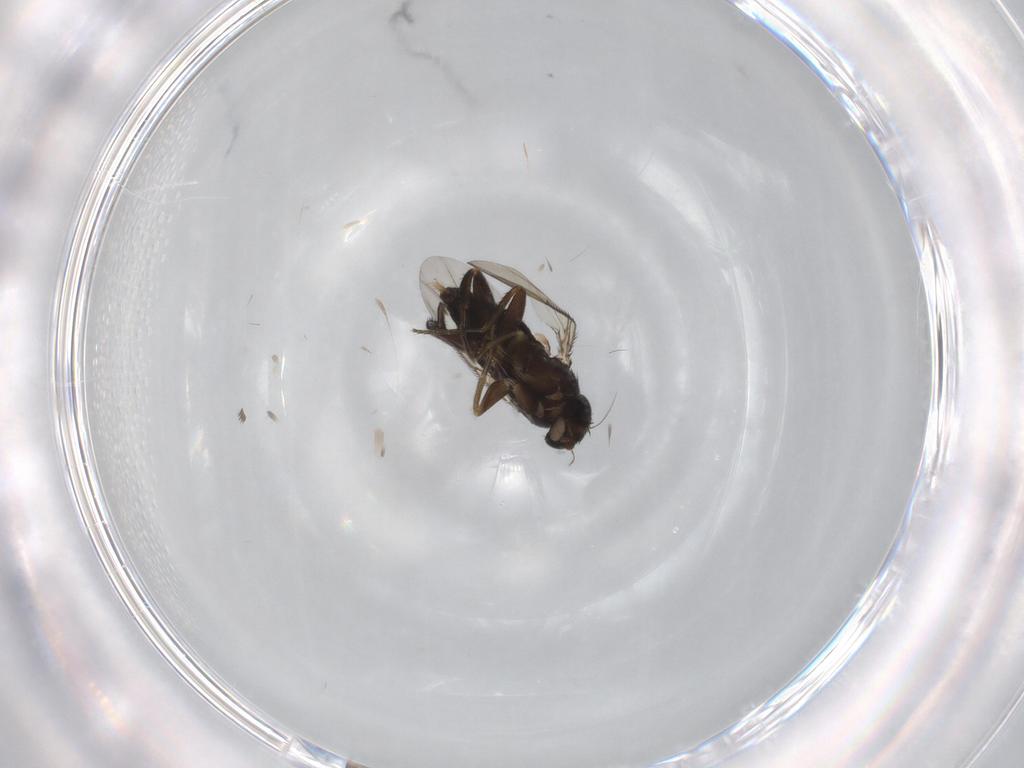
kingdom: Animalia
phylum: Arthropoda
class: Insecta
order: Diptera
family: Phoridae
